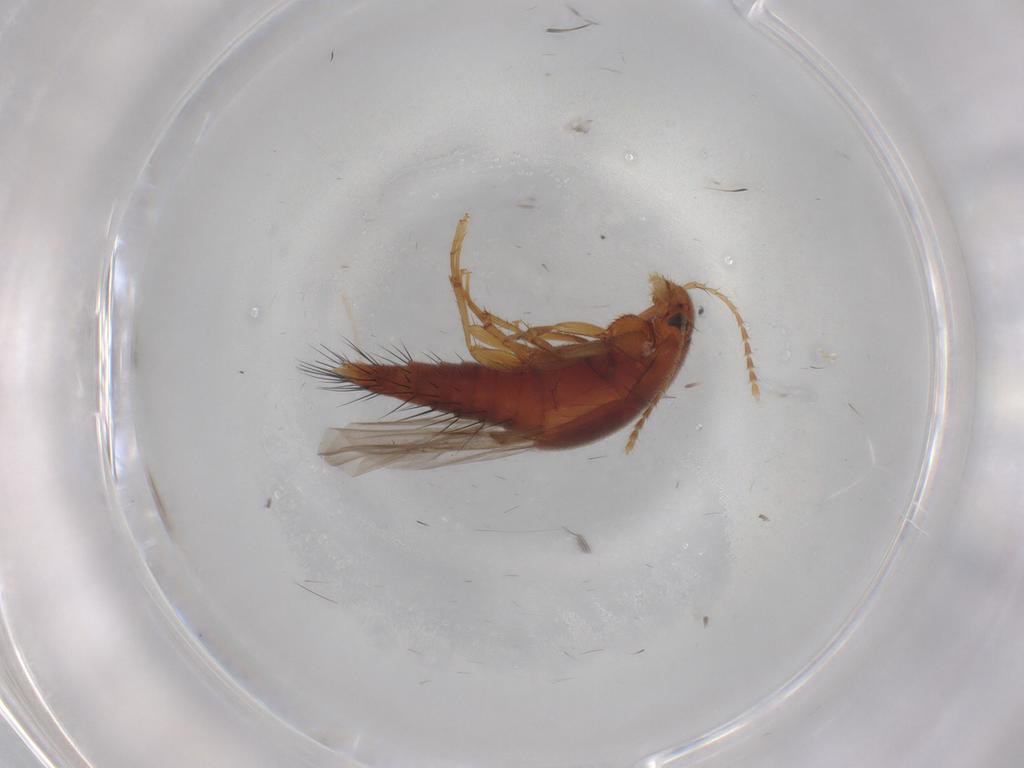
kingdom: Animalia
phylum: Arthropoda
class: Insecta
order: Coleoptera
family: Staphylinidae
